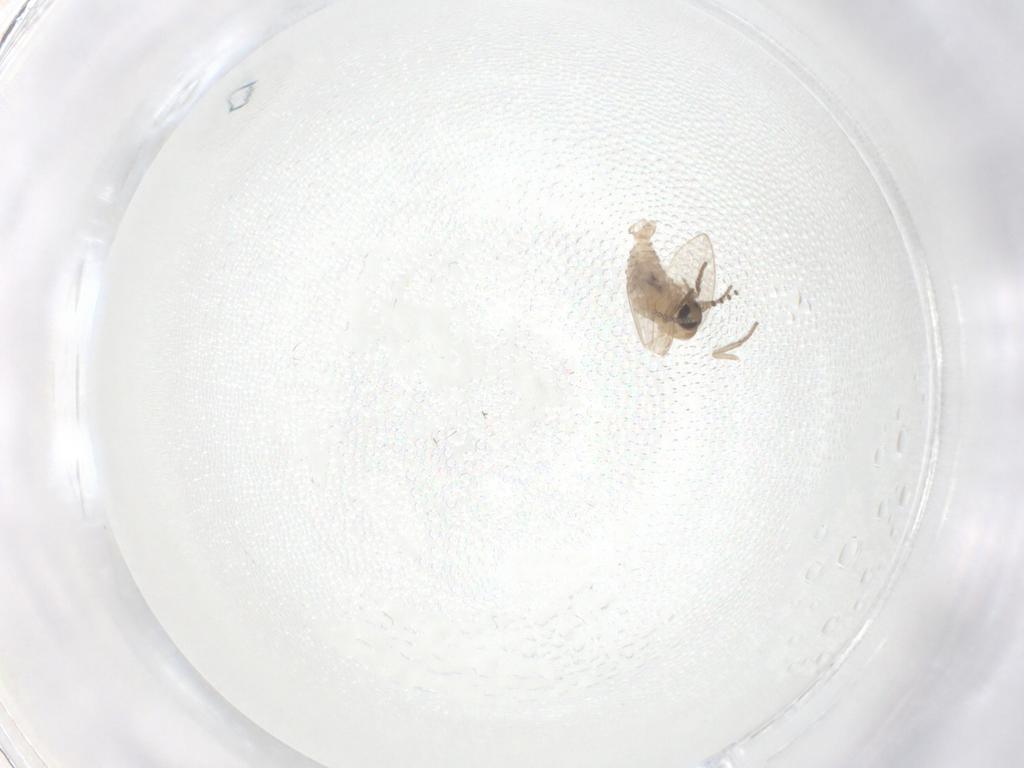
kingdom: Animalia
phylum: Arthropoda
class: Insecta
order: Diptera
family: Psychodidae
